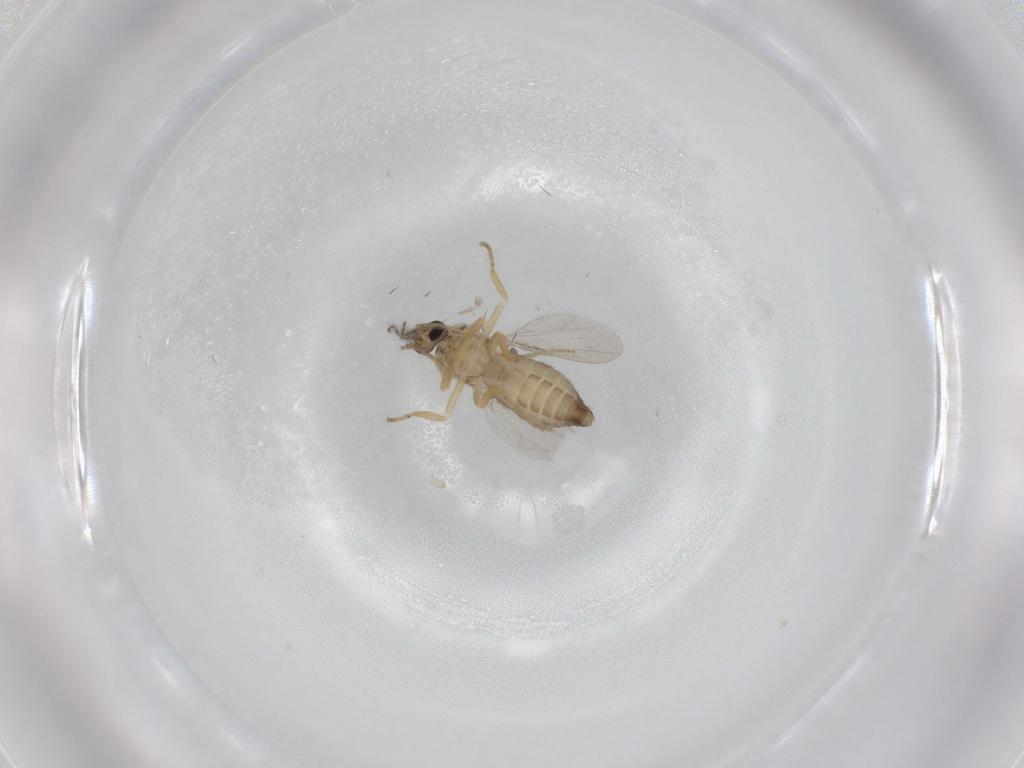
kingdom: Animalia
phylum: Arthropoda
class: Insecta
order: Diptera
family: Ceratopogonidae
